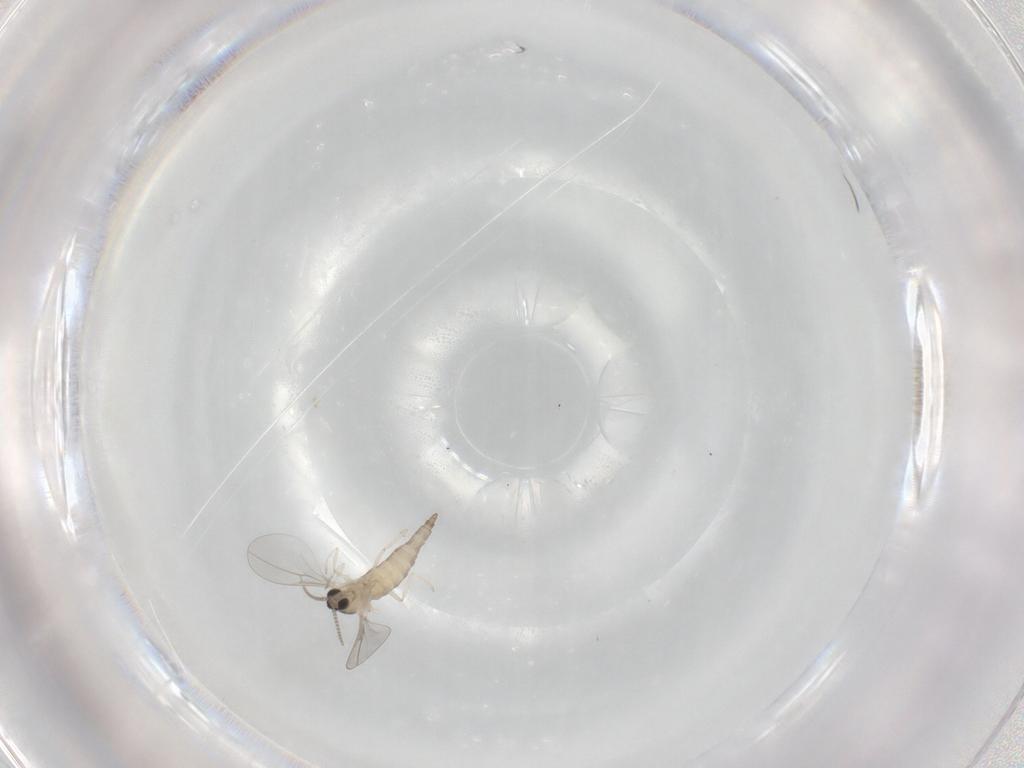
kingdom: Animalia
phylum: Arthropoda
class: Insecta
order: Diptera
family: Cecidomyiidae
